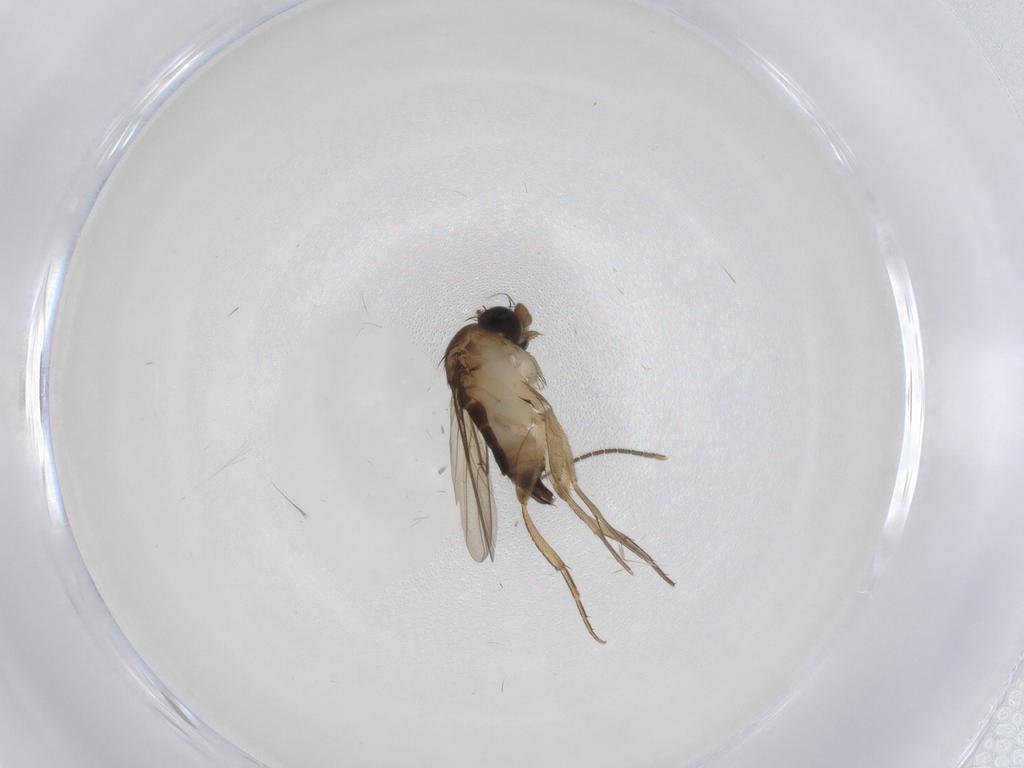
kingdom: Animalia
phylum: Arthropoda
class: Insecta
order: Diptera
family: Phoridae
